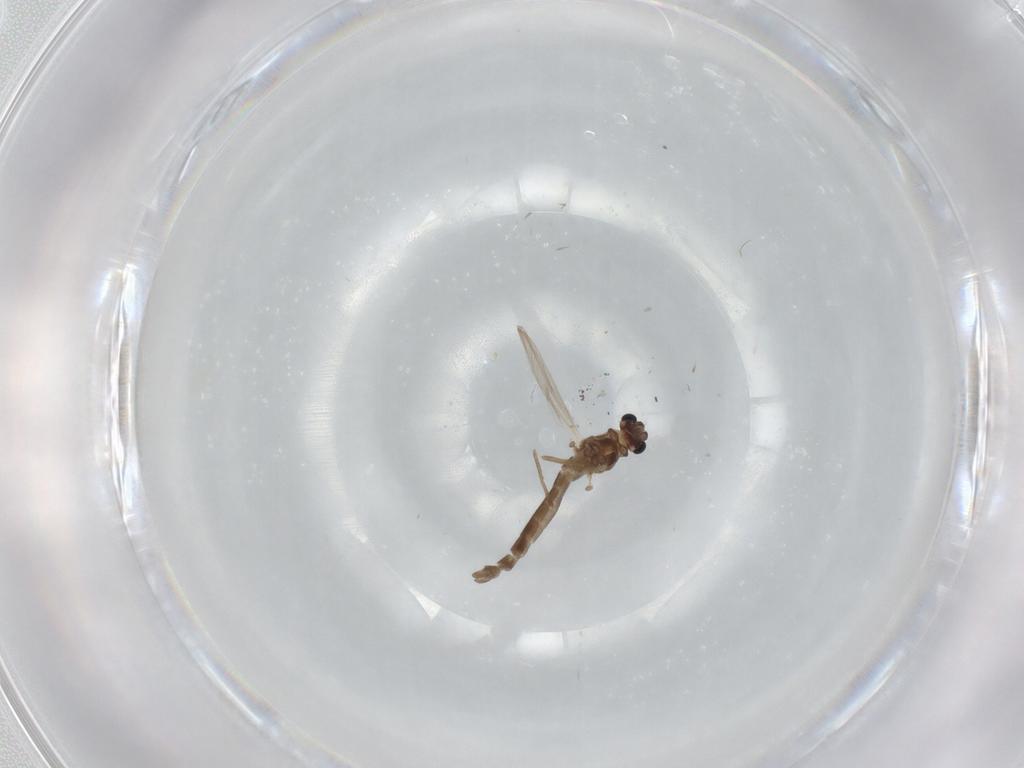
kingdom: Animalia
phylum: Arthropoda
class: Insecta
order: Diptera
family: Chironomidae
